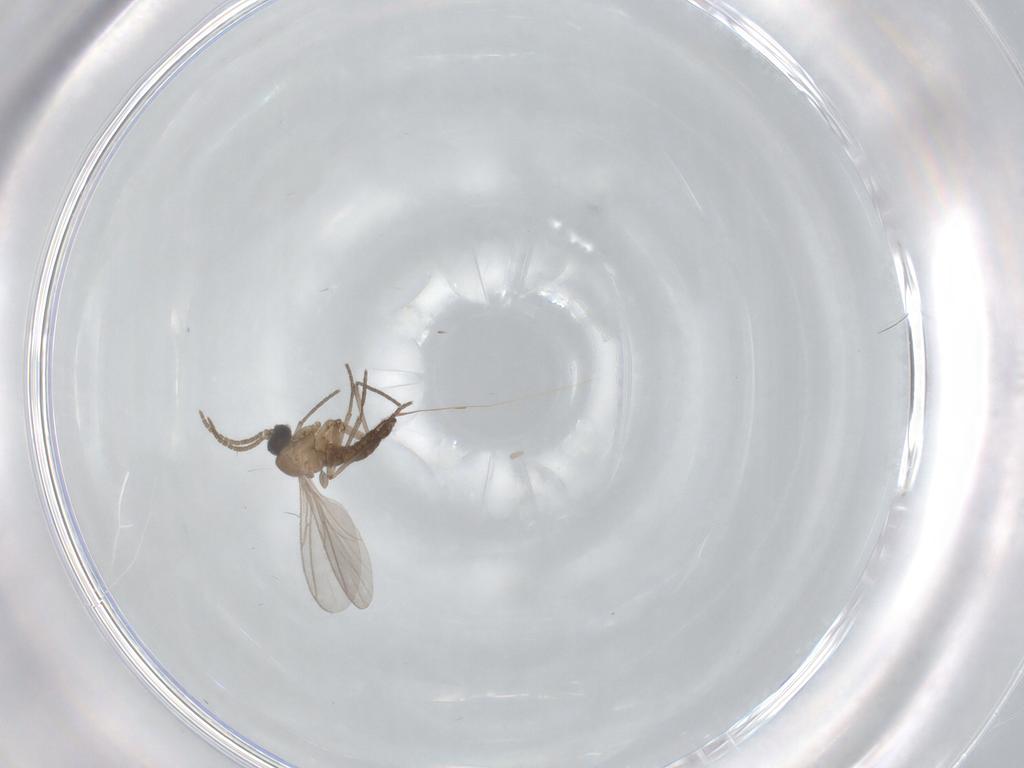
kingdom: Animalia
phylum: Arthropoda
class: Insecta
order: Diptera
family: Sciaridae
